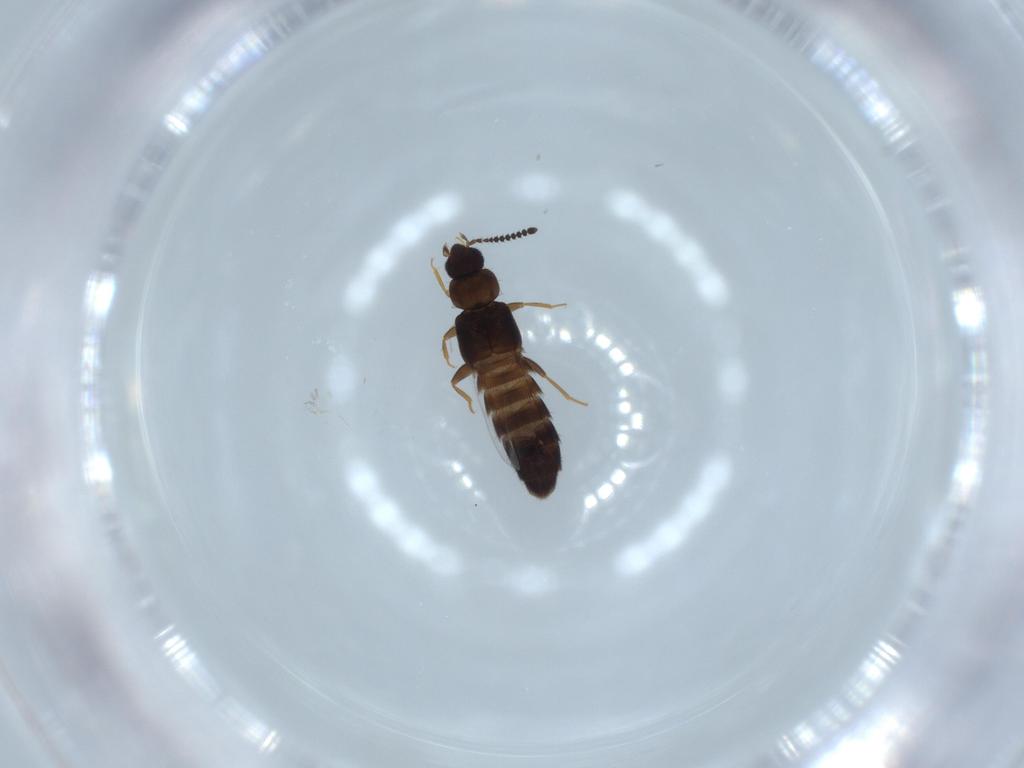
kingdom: Animalia
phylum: Arthropoda
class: Insecta
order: Coleoptera
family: Staphylinidae
